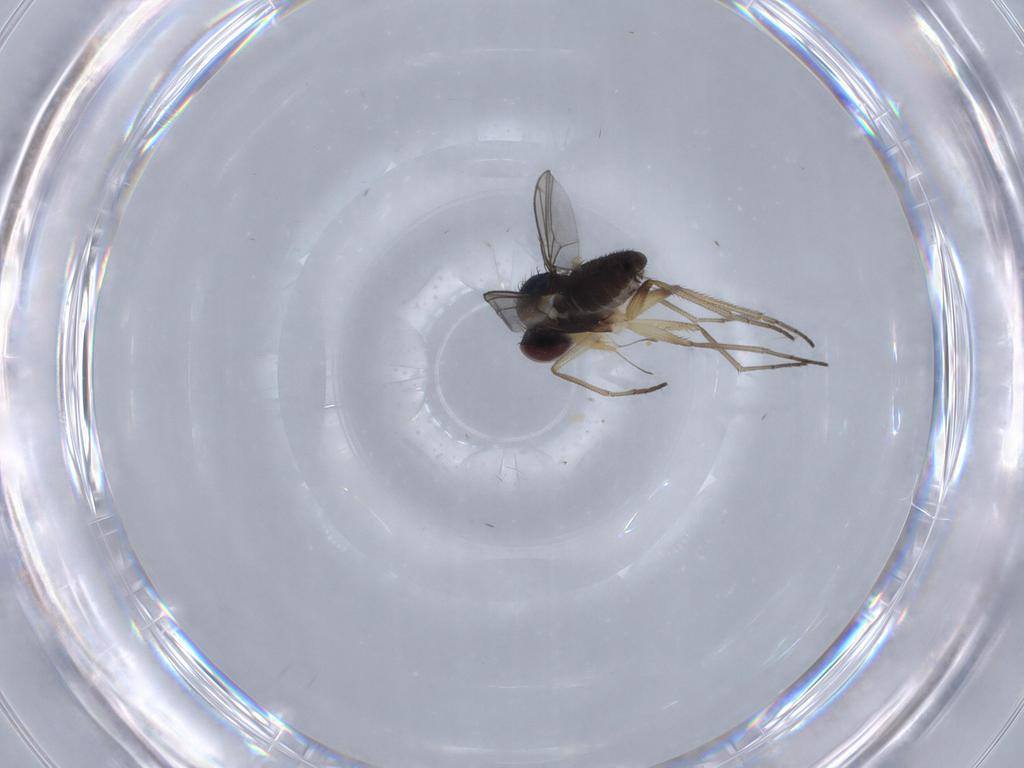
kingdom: Animalia
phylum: Arthropoda
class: Insecta
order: Diptera
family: Dolichopodidae
